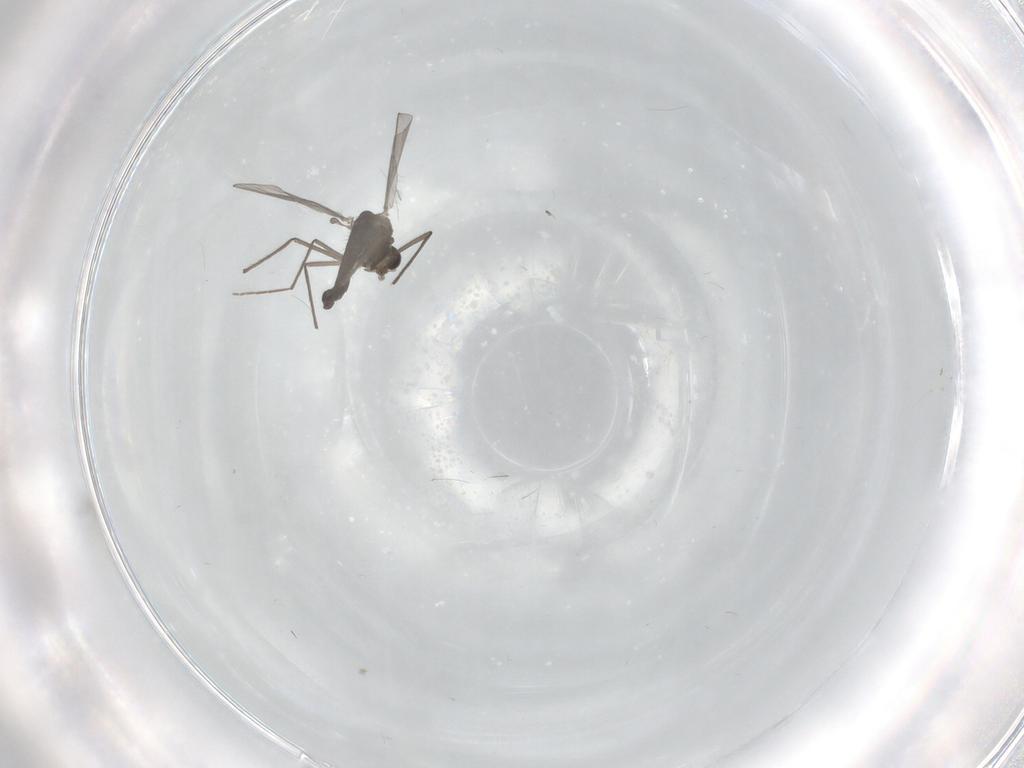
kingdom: Animalia
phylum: Arthropoda
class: Insecta
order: Diptera
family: Chironomidae
